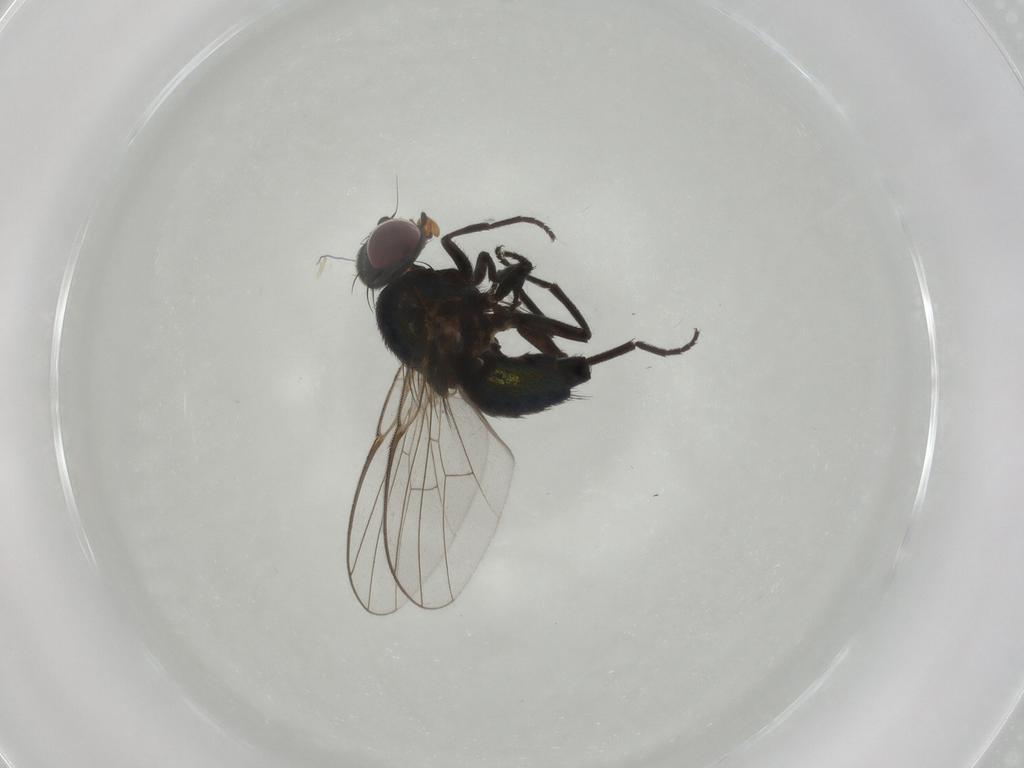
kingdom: Animalia
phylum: Arthropoda
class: Insecta
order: Diptera
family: Agromyzidae
